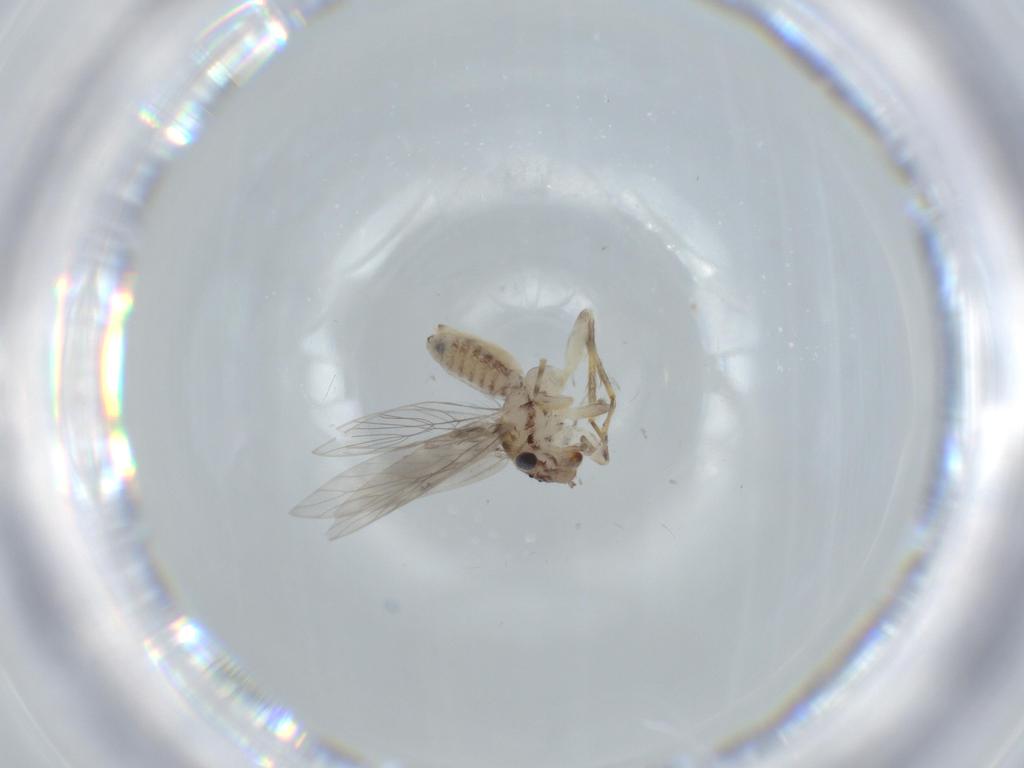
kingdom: Animalia
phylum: Arthropoda
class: Insecta
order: Psocodea
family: Lepidopsocidae
